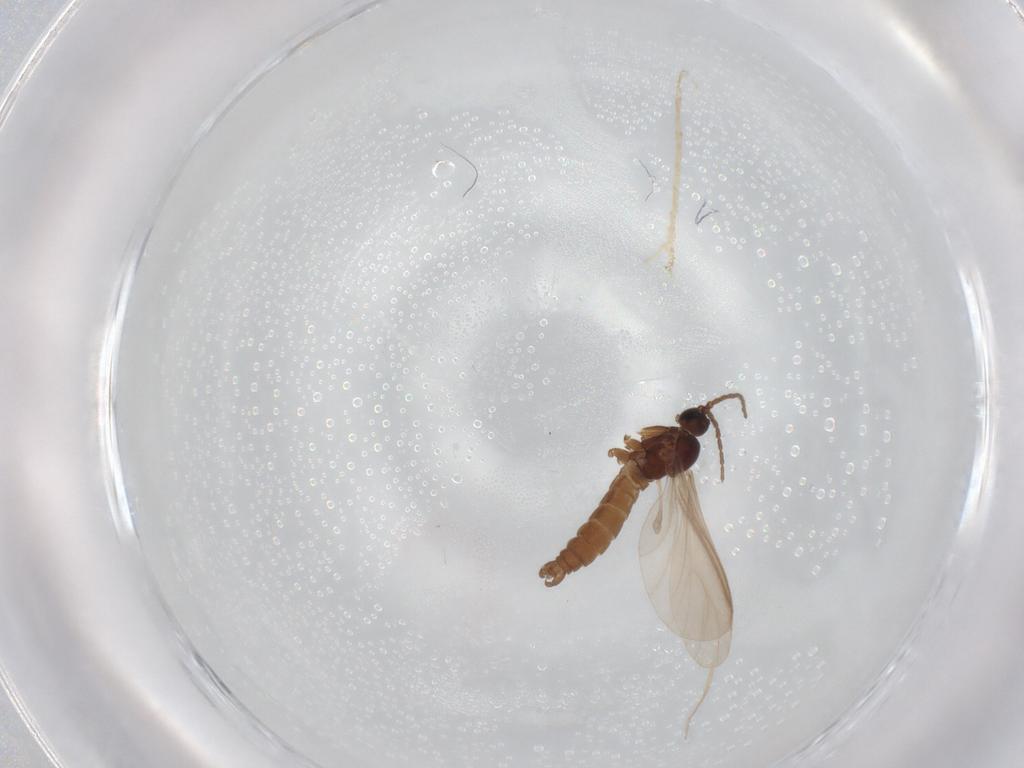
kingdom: Animalia
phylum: Arthropoda
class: Insecta
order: Diptera
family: Sciaridae
